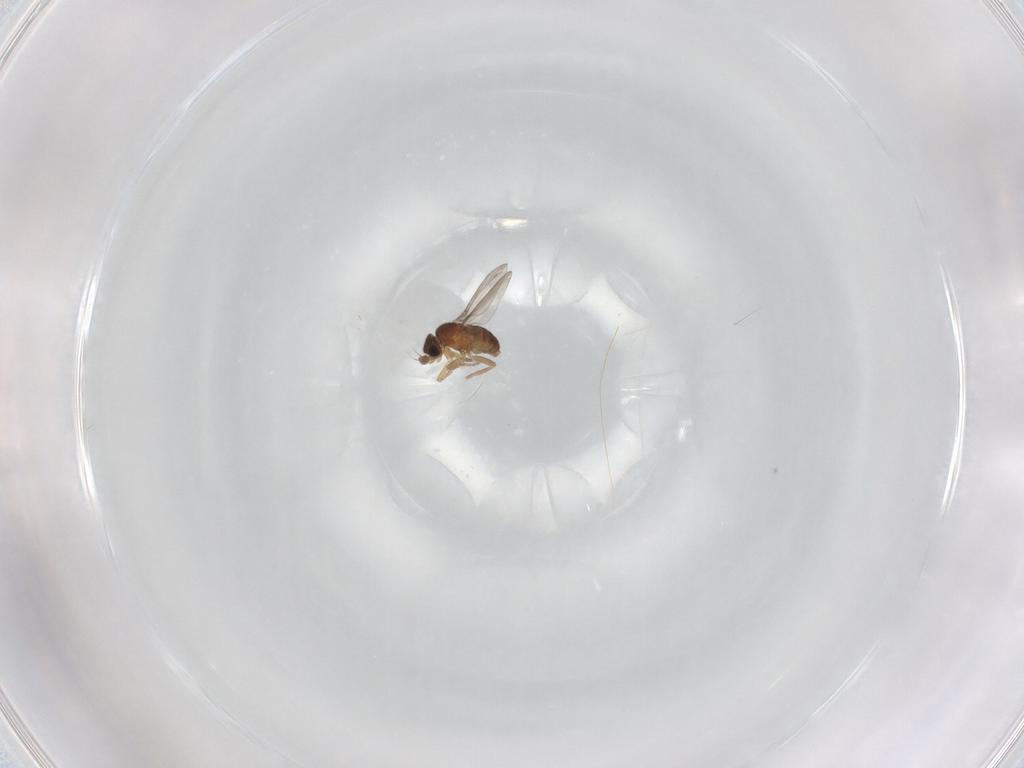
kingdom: Animalia
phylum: Arthropoda
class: Insecta
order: Diptera
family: Phoridae
